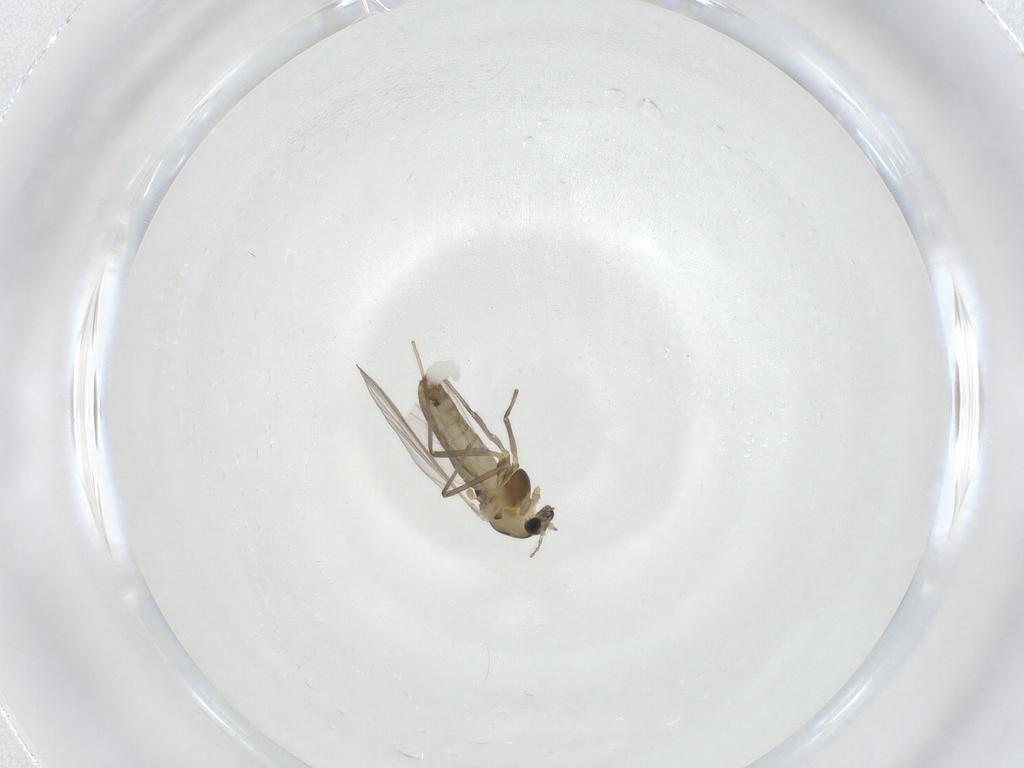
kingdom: Animalia
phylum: Arthropoda
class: Insecta
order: Diptera
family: Chironomidae
